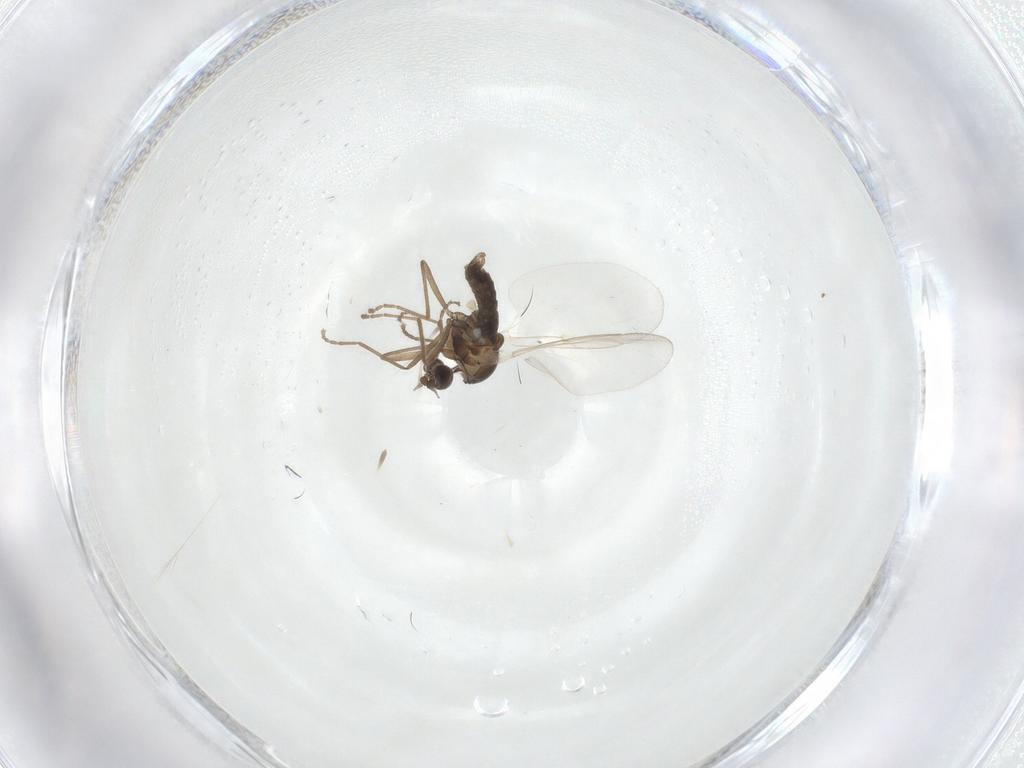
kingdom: Animalia
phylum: Arthropoda
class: Insecta
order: Diptera
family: Cecidomyiidae
